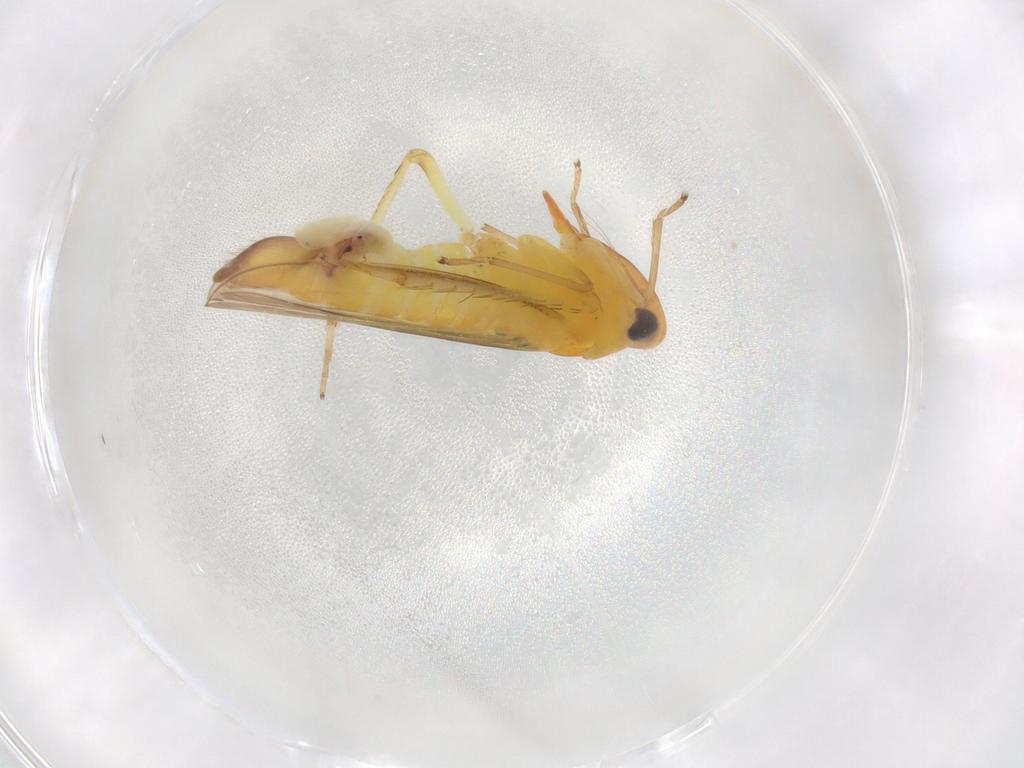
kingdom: Animalia
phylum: Arthropoda
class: Insecta
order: Hemiptera
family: Cicadellidae
